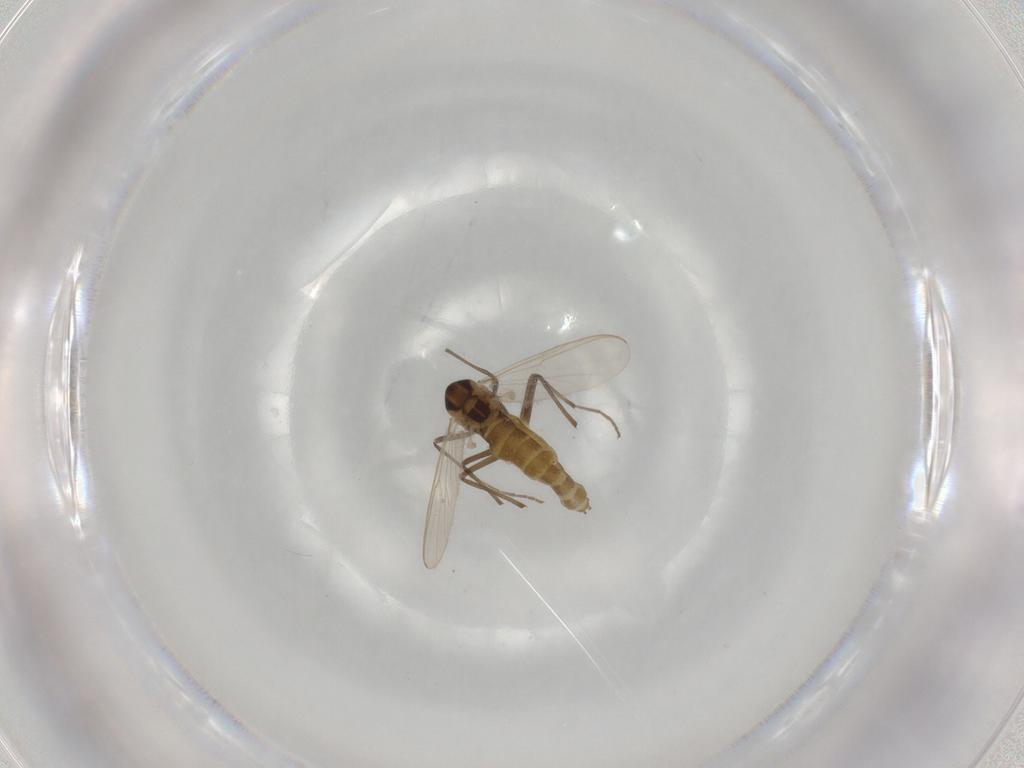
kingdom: Animalia
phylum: Arthropoda
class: Insecta
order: Diptera
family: Chironomidae
